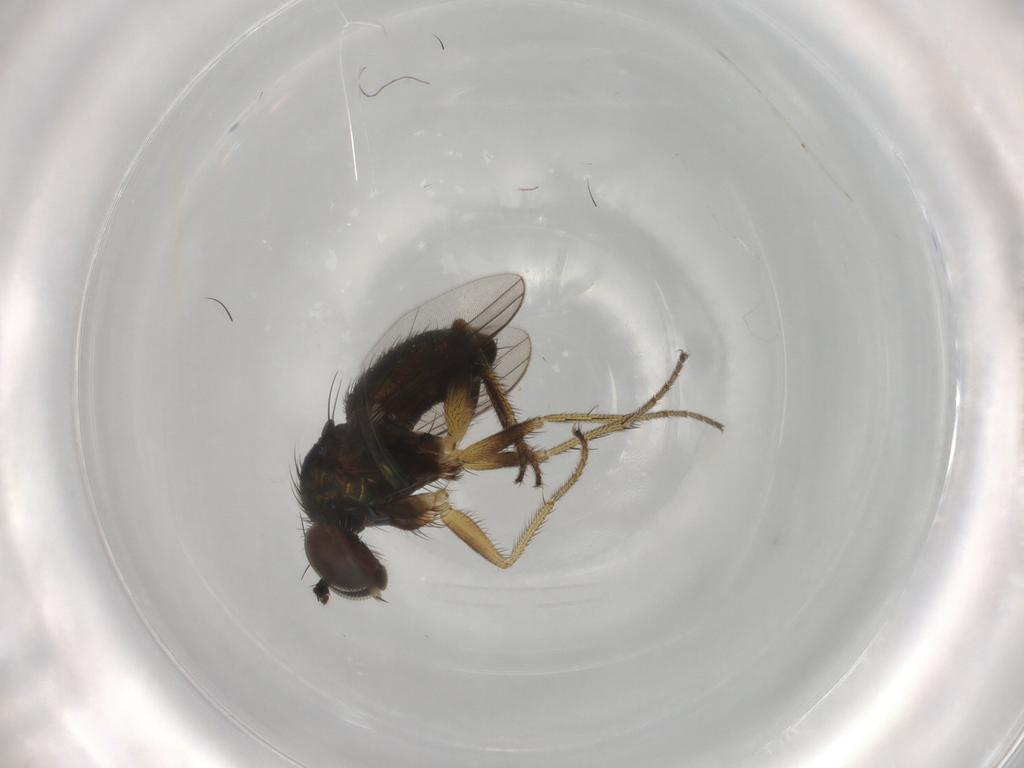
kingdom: Animalia
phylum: Arthropoda
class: Insecta
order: Diptera
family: Dolichopodidae
